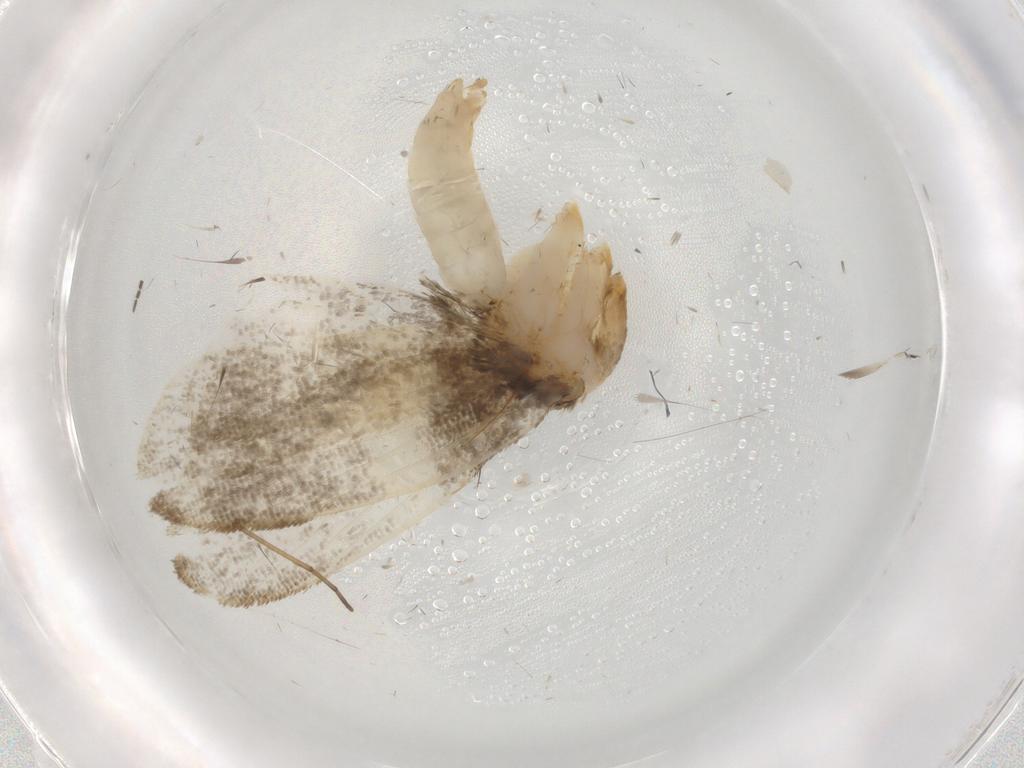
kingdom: Animalia
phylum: Arthropoda
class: Insecta
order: Lepidoptera
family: Psychidae
